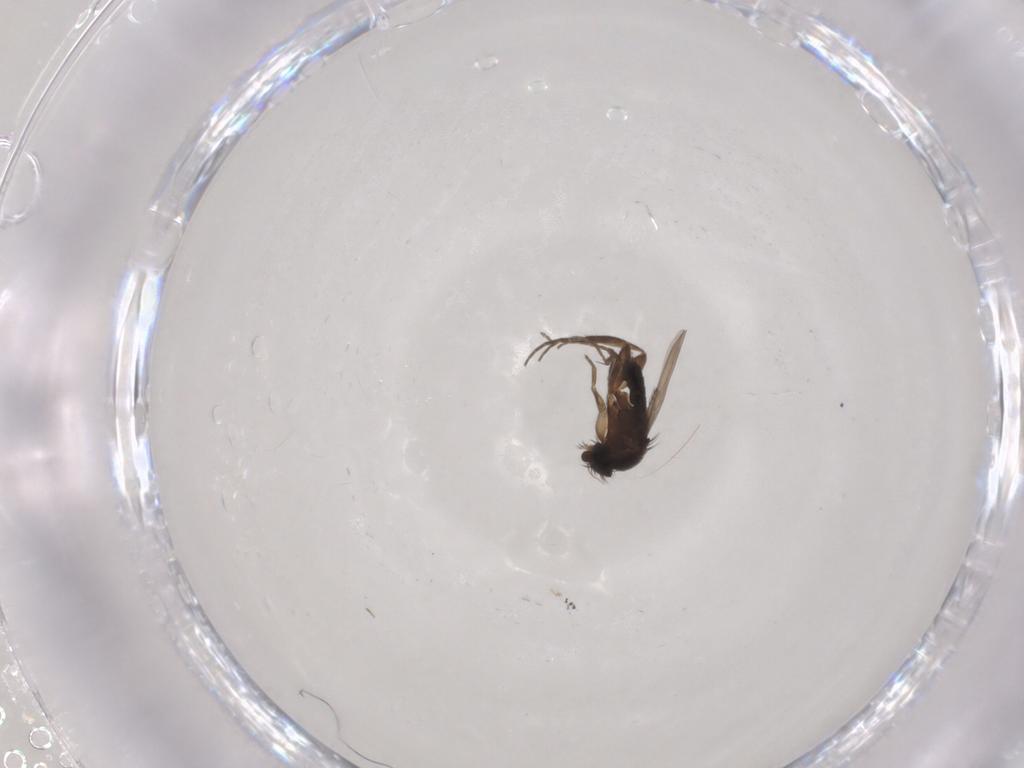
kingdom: Animalia
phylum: Arthropoda
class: Insecta
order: Diptera
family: Phoridae
